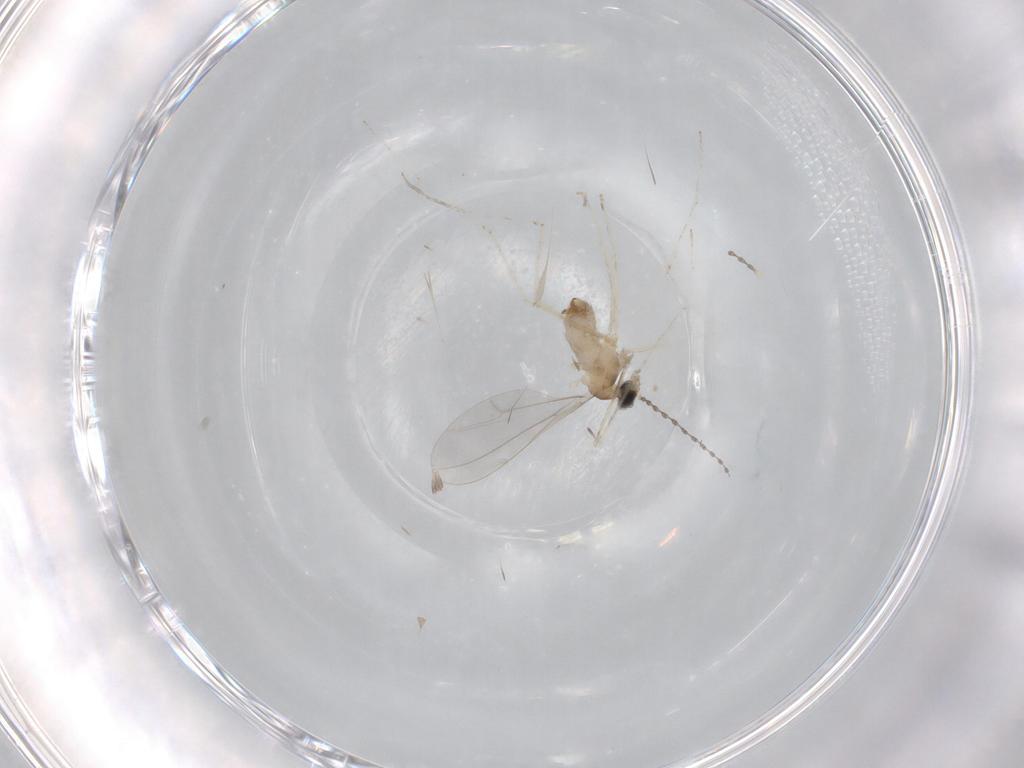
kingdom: Animalia
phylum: Arthropoda
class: Insecta
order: Diptera
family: Cecidomyiidae
